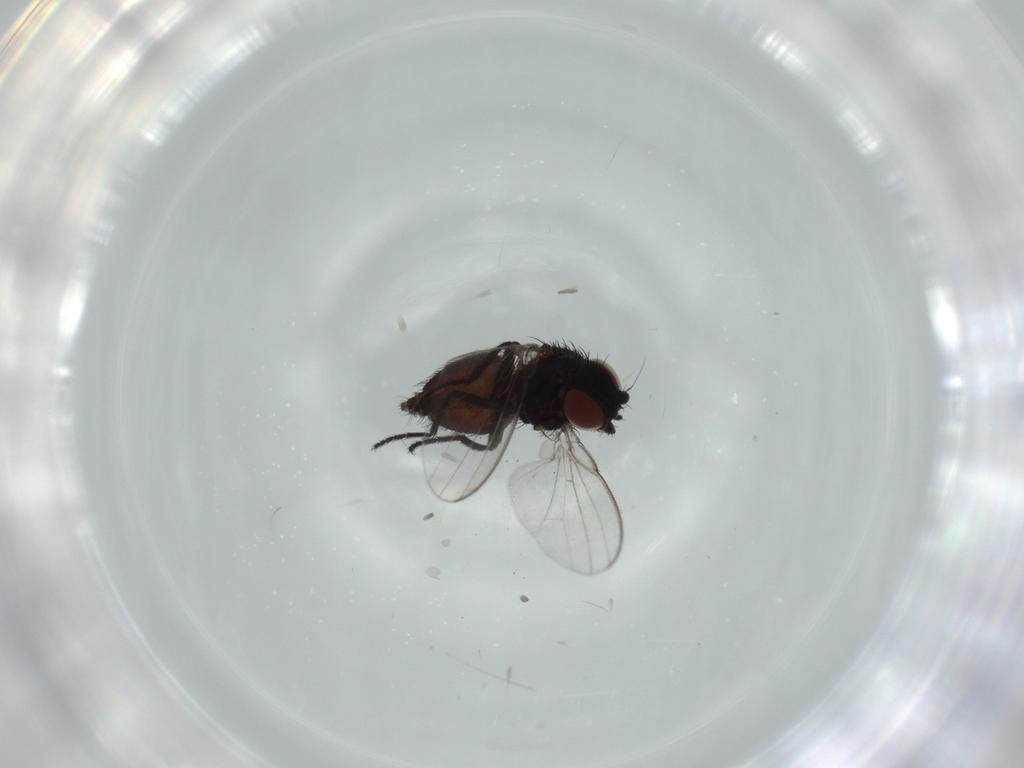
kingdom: Animalia
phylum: Arthropoda
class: Insecta
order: Diptera
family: Milichiidae
